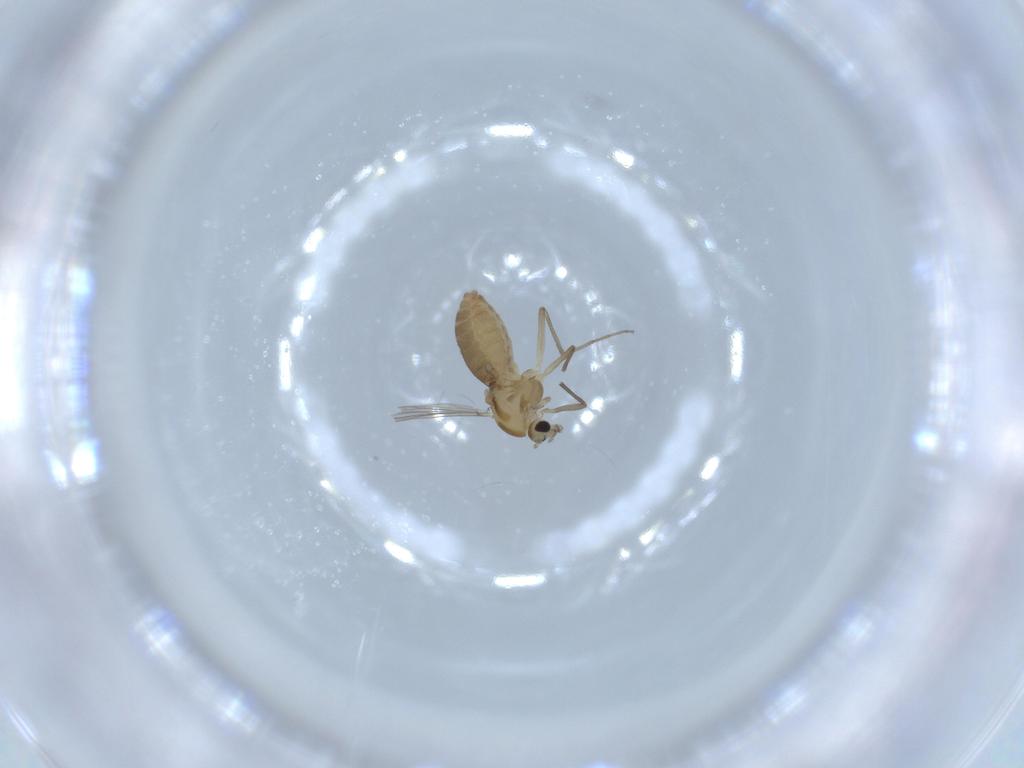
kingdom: Animalia
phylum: Arthropoda
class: Insecta
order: Diptera
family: Chironomidae
